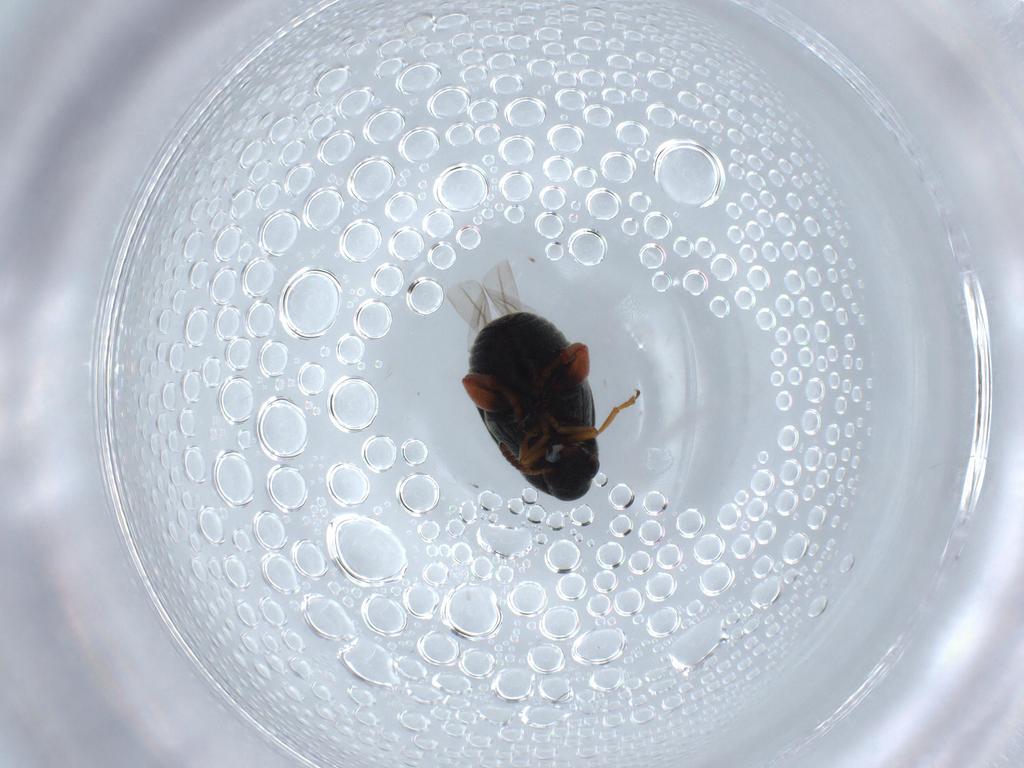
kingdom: Animalia
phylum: Arthropoda
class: Insecta
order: Coleoptera
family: Chrysomelidae
